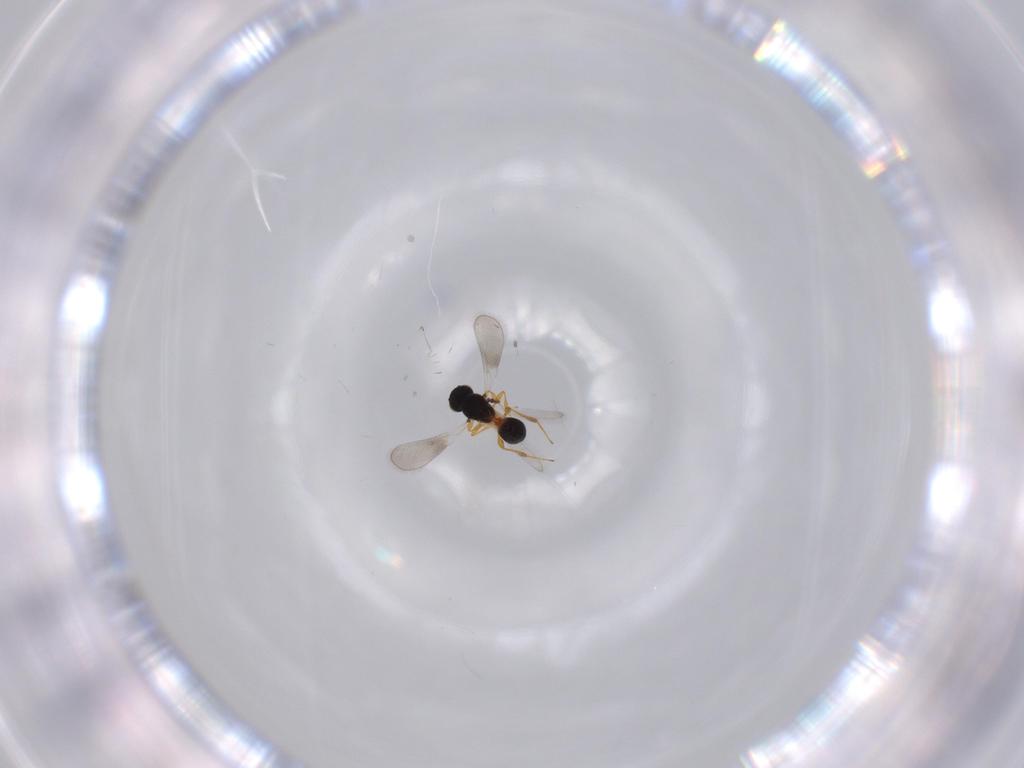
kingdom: Animalia
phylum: Arthropoda
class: Insecta
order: Hymenoptera
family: Platygastridae
